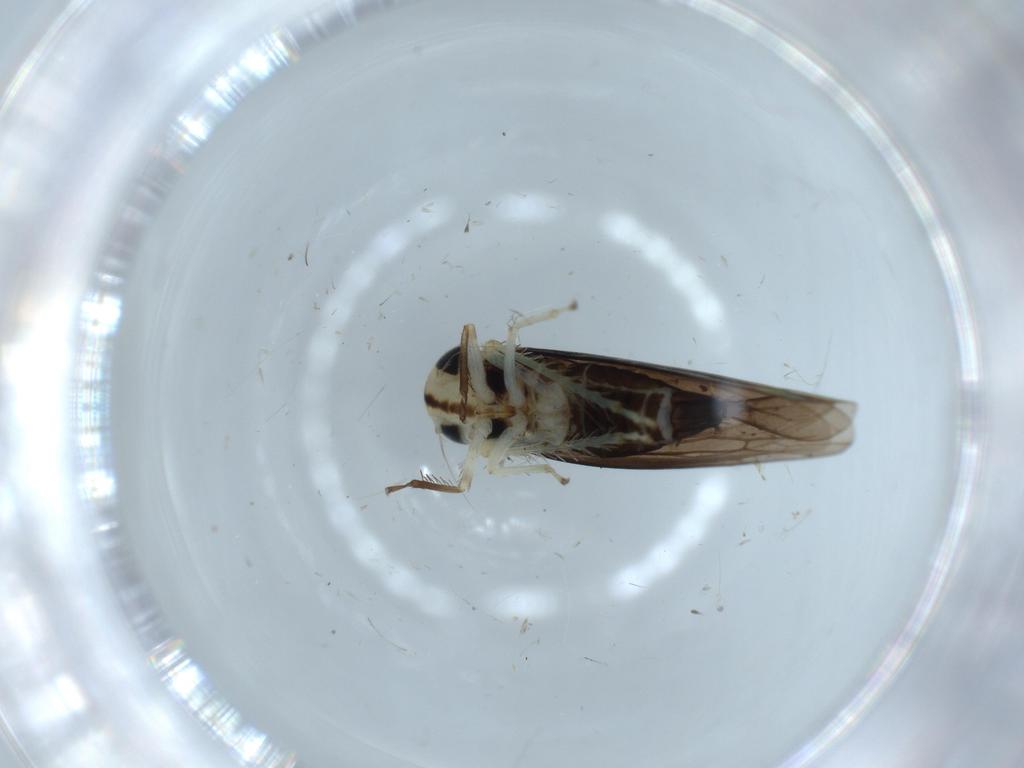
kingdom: Animalia
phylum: Arthropoda
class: Insecta
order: Hemiptera
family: Cicadellidae
